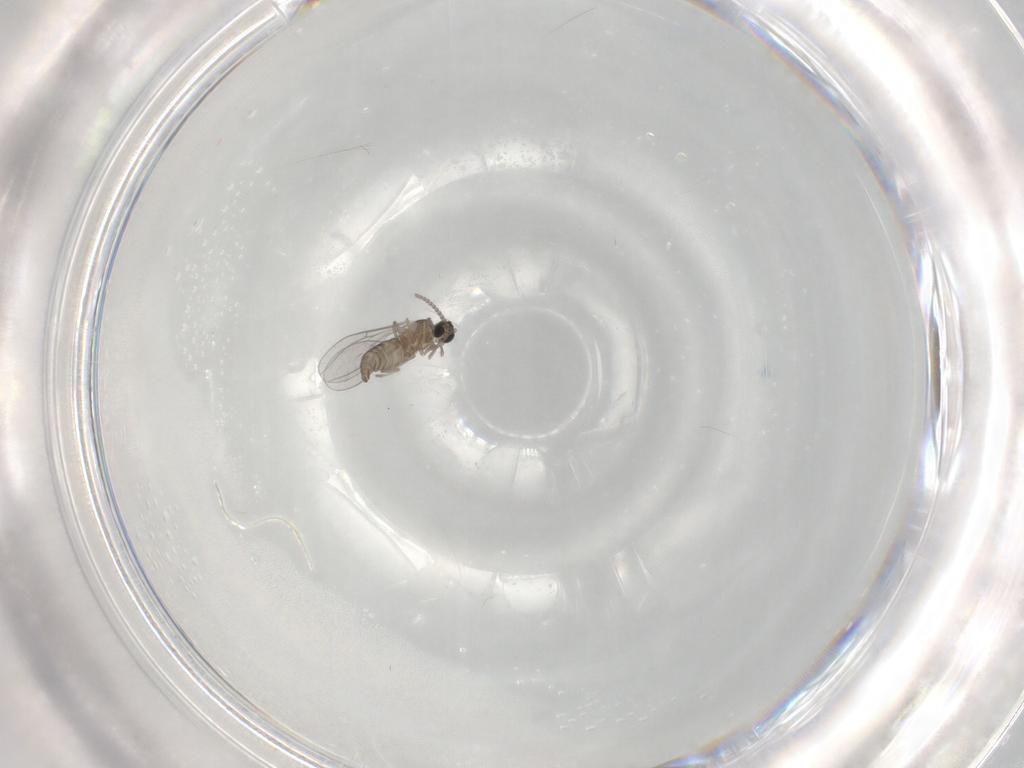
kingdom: Animalia
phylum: Arthropoda
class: Insecta
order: Diptera
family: Cecidomyiidae
